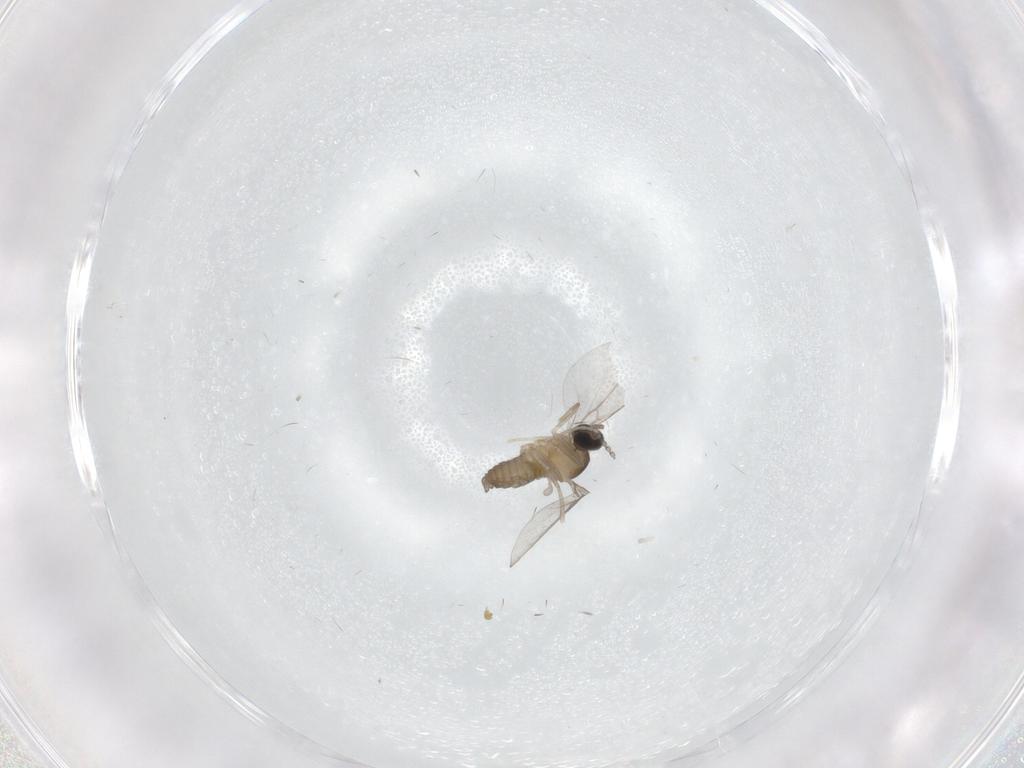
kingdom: Animalia
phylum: Arthropoda
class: Insecta
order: Diptera
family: Cecidomyiidae
